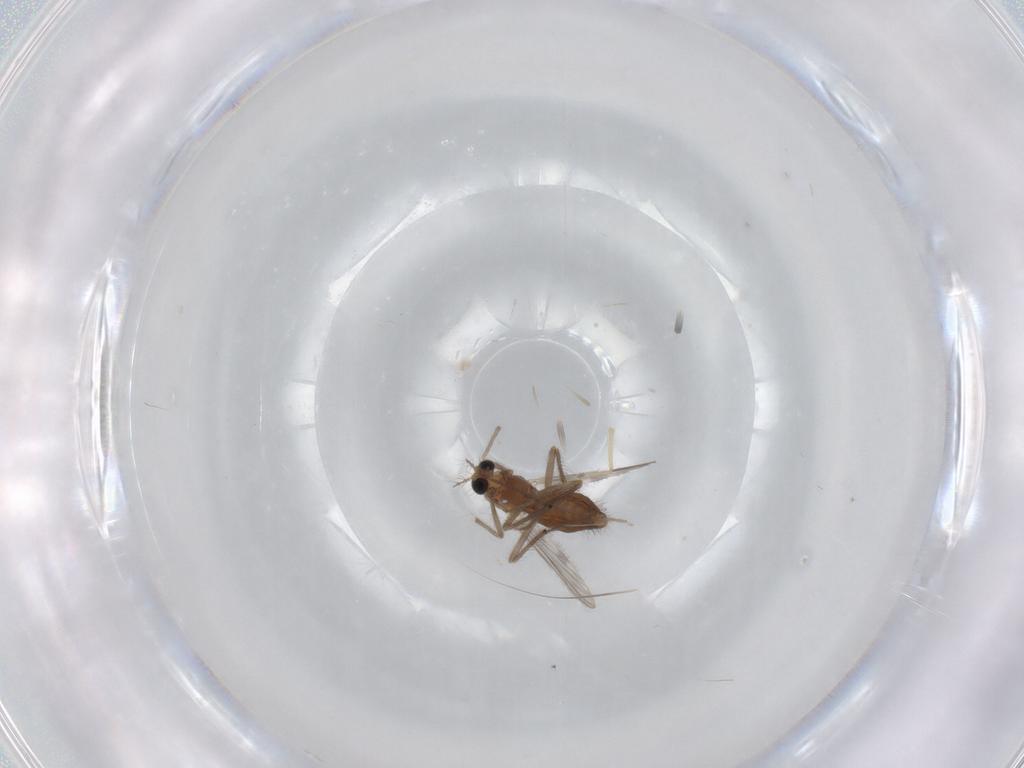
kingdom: Animalia
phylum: Arthropoda
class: Insecta
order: Diptera
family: Chironomidae
